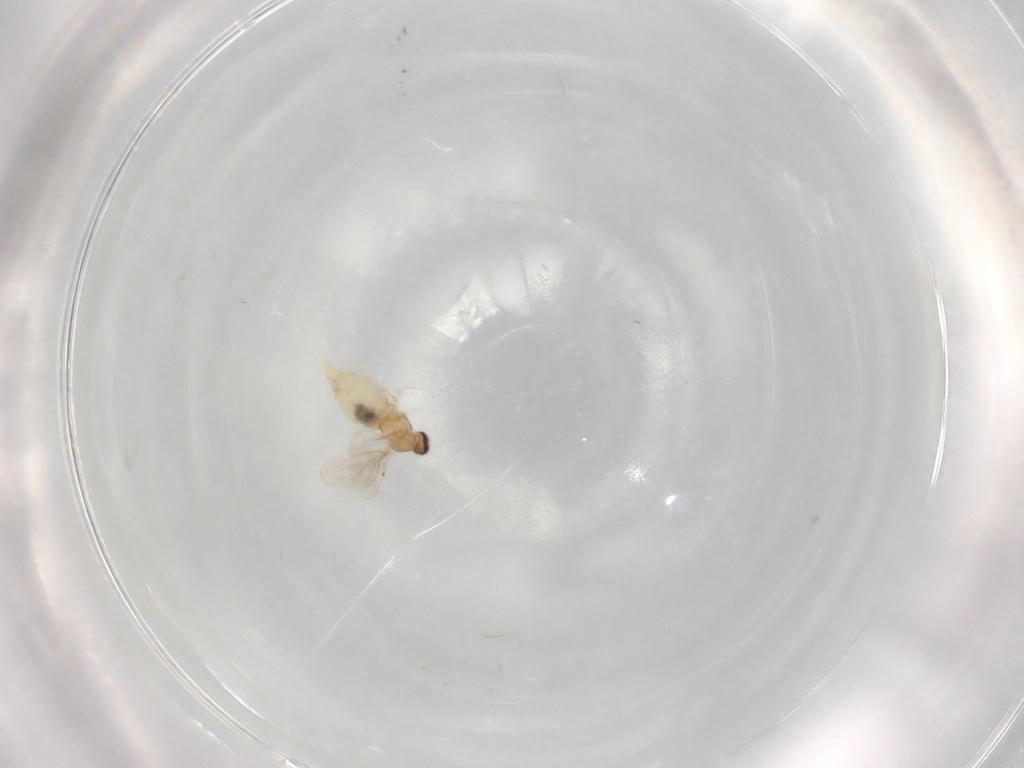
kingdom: Animalia
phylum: Arthropoda
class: Insecta
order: Diptera
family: Cecidomyiidae
